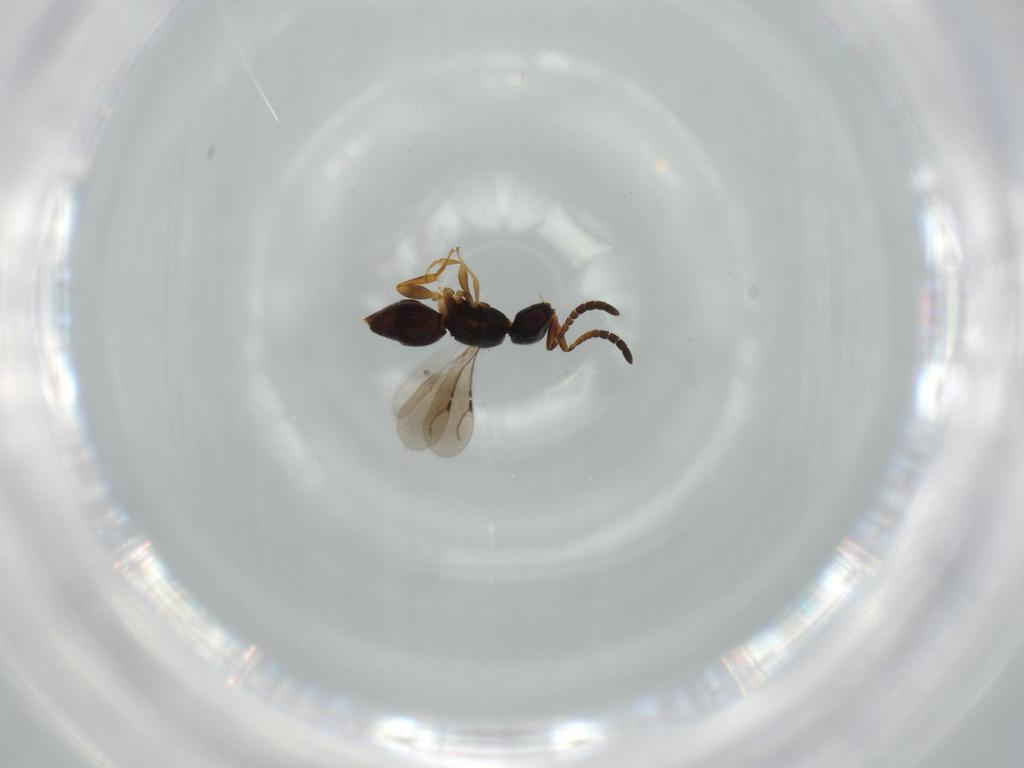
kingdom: Animalia
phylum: Arthropoda
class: Insecta
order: Hymenoptera
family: Ceraphronidae
